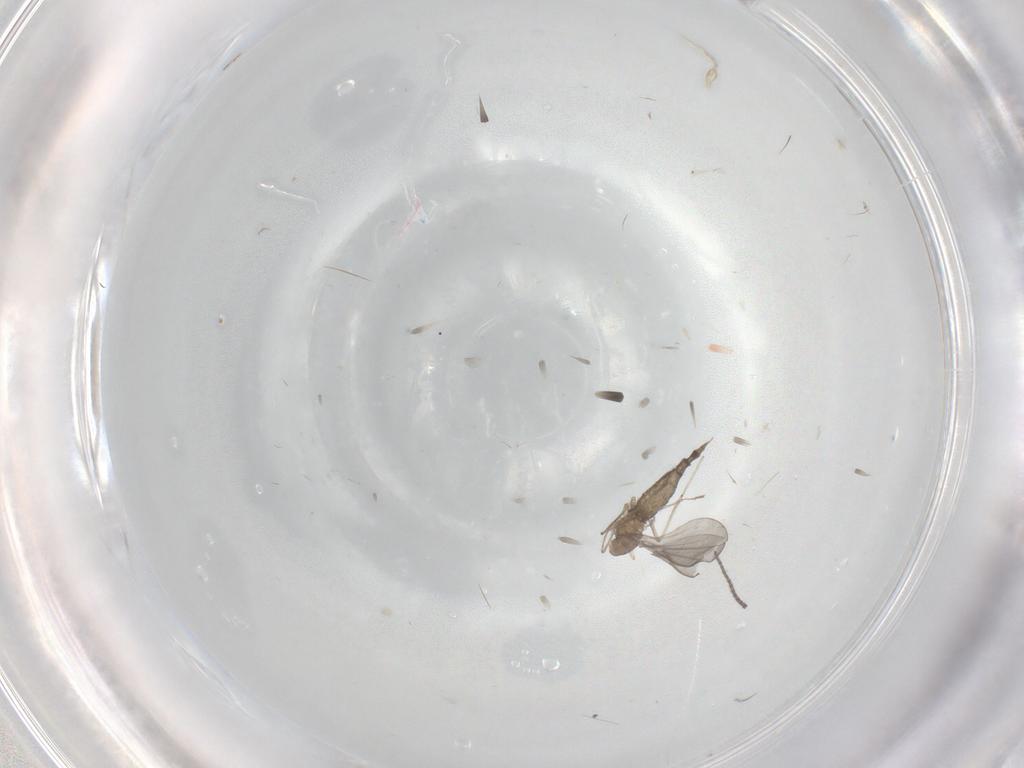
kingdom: Animalia
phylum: Arthropoda
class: Insecta
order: Diptera
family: Cecidomyiidae
